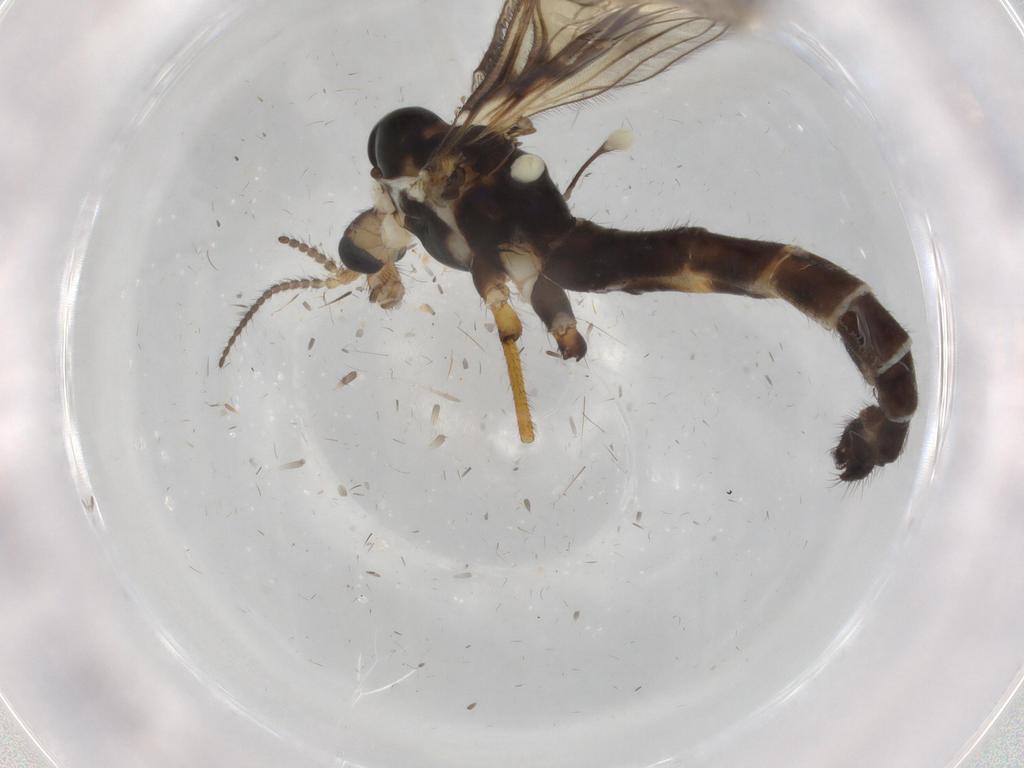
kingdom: Animalia
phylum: Arthropoda
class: Insecta
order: Diptera
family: Limoniidae
